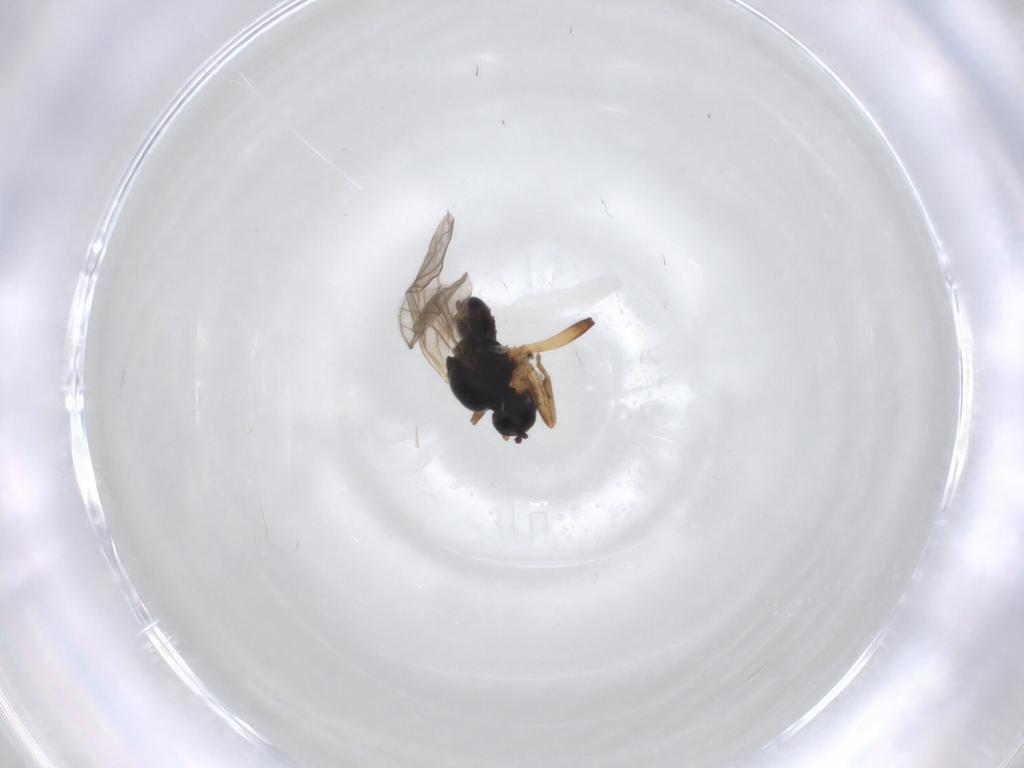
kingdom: Animalia
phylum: Arthropoda
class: Insecta
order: Diptera
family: Hybotidae
